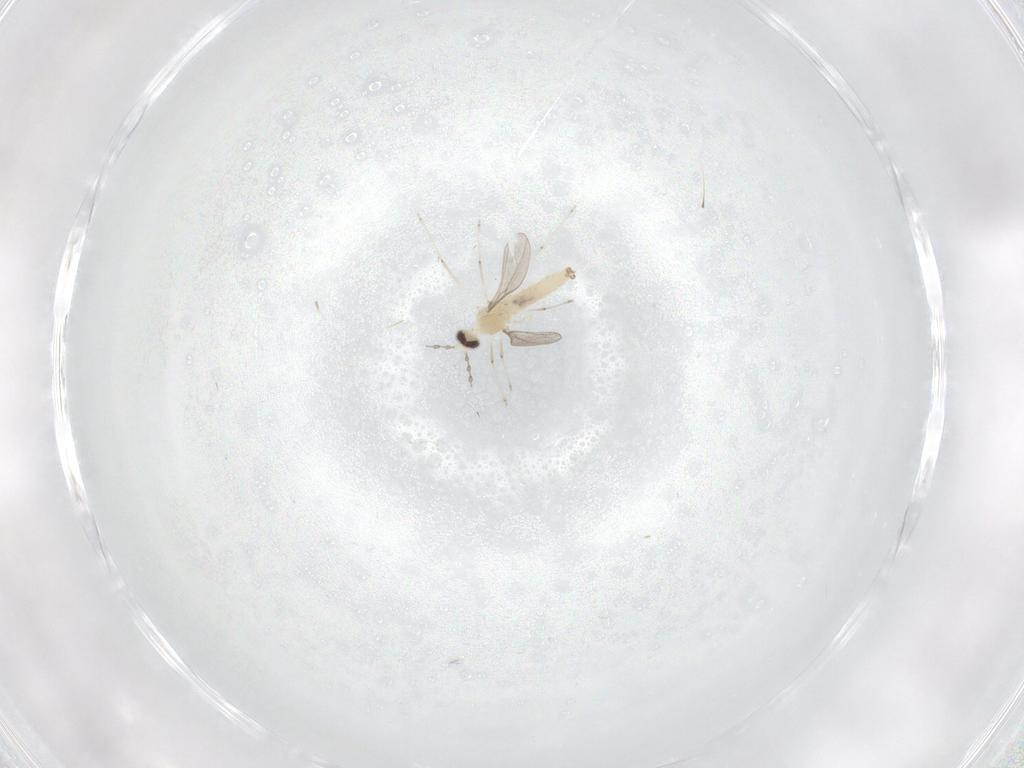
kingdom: Animalia
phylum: Arthropoda
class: Insecta
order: Diptera
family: Cecidomyiidae
